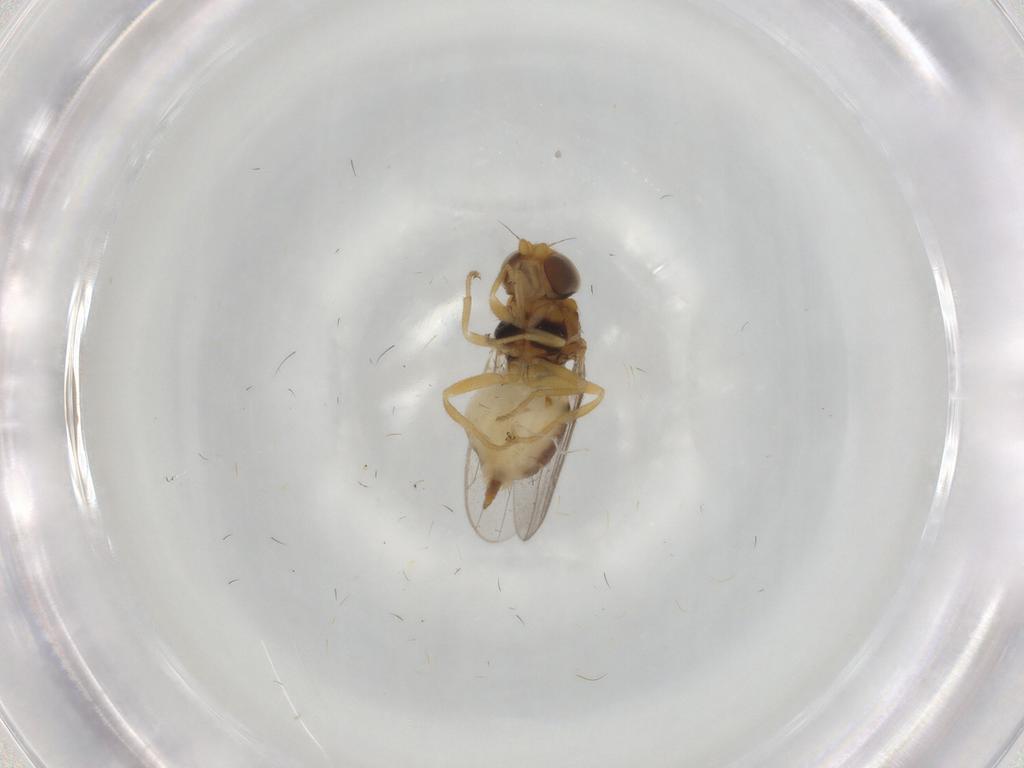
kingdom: Animalia
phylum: Arthropoda
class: Insecta
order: Diptera
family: Chloropidae
